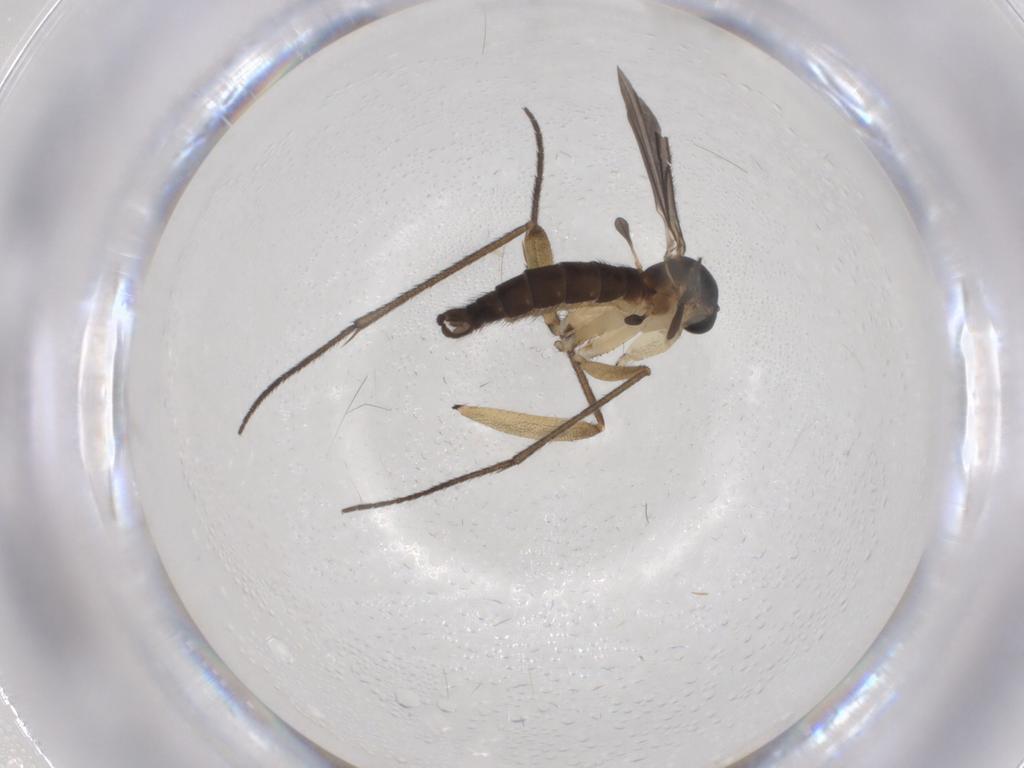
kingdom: Animalia
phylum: Arthropoda
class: Insecta
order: Diptera
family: Sciaridae
